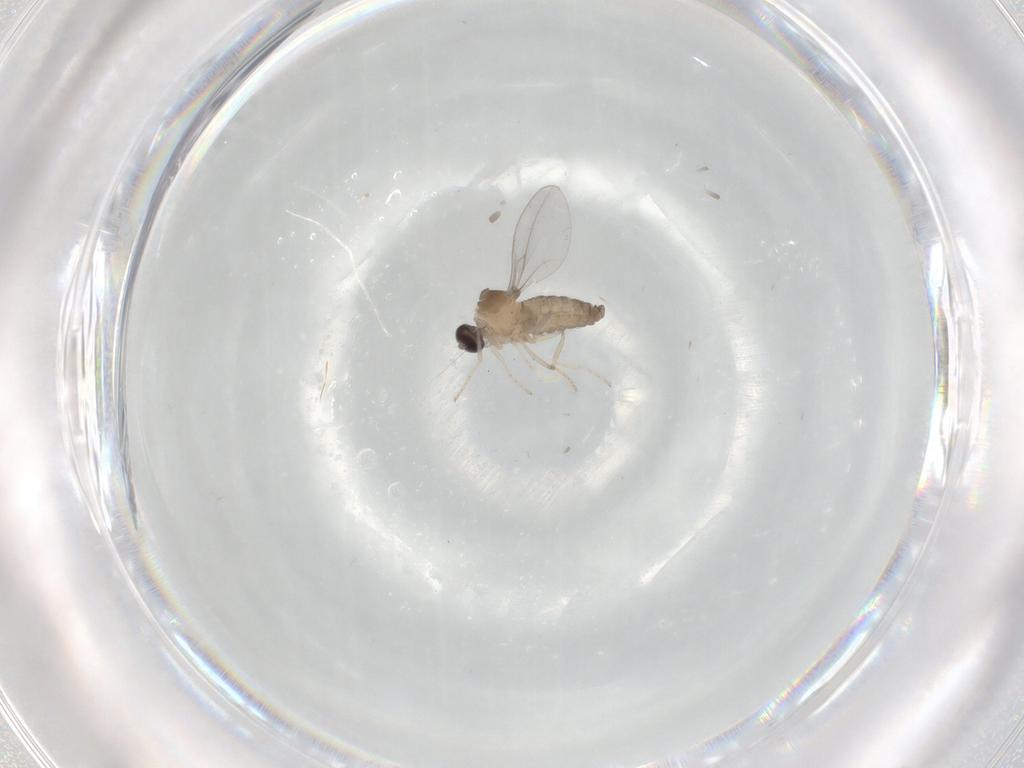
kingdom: Animalia
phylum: Arthropoda
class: Insecta
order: Diptera
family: Cecidomyiidae
